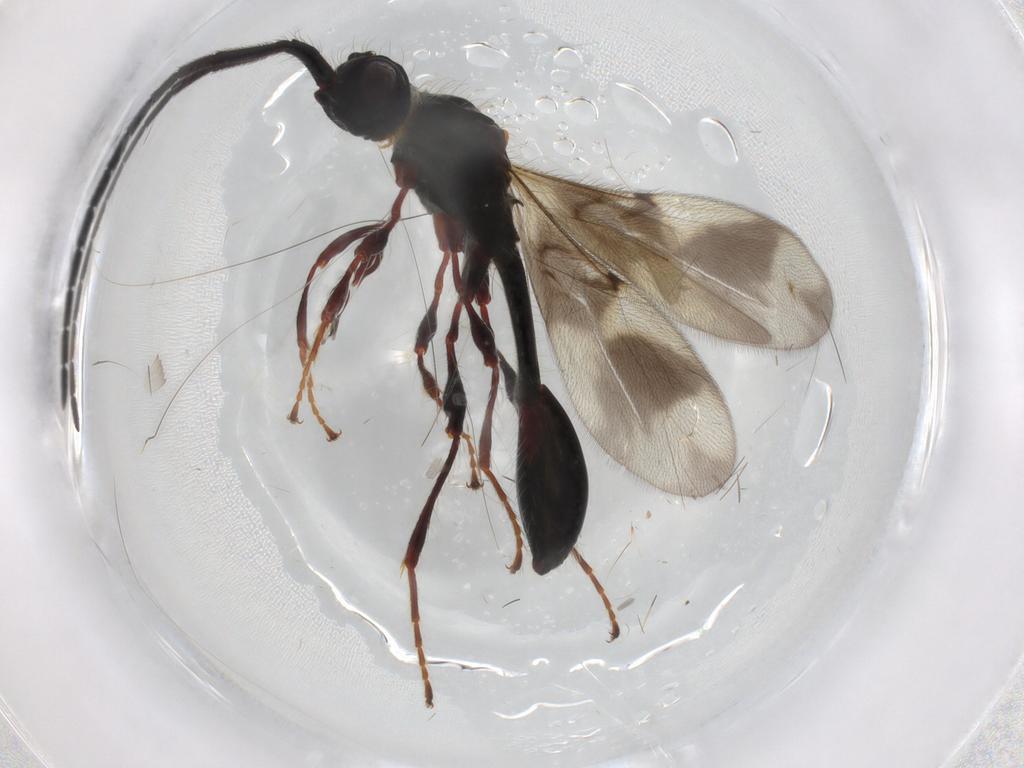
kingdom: Animalia
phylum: Arthropoda
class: Insecta
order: Hymenoptera
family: Diapriidae
